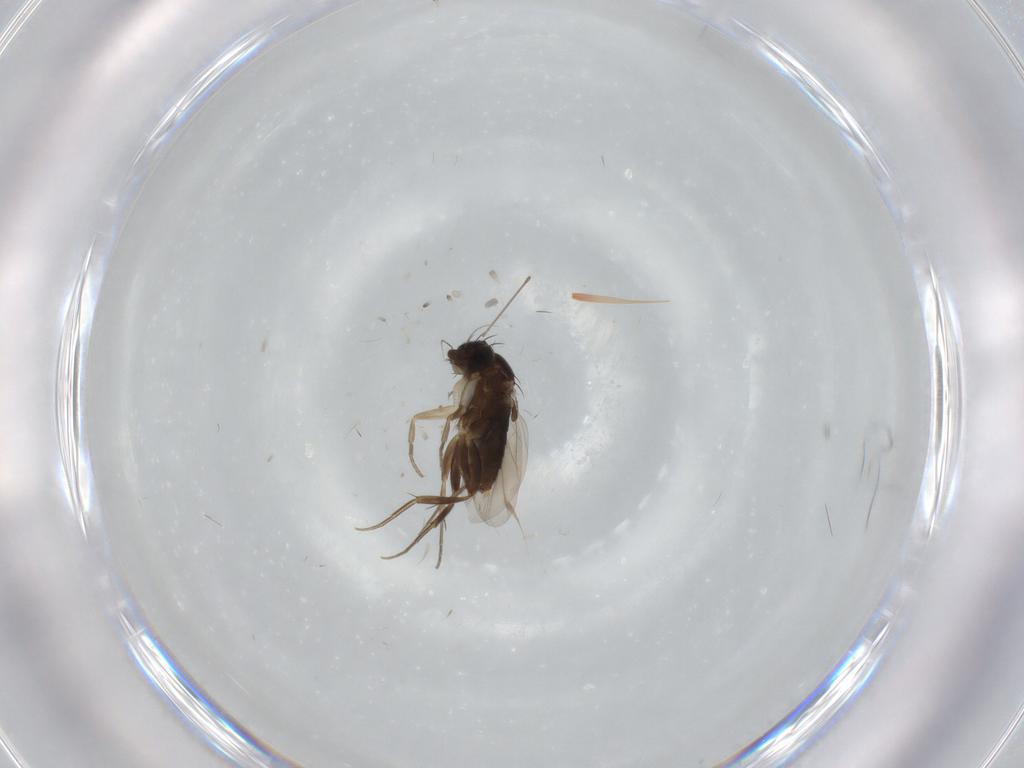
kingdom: Animalia
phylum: Arthropoda
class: Insecta
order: Diptera
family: Phoridae
